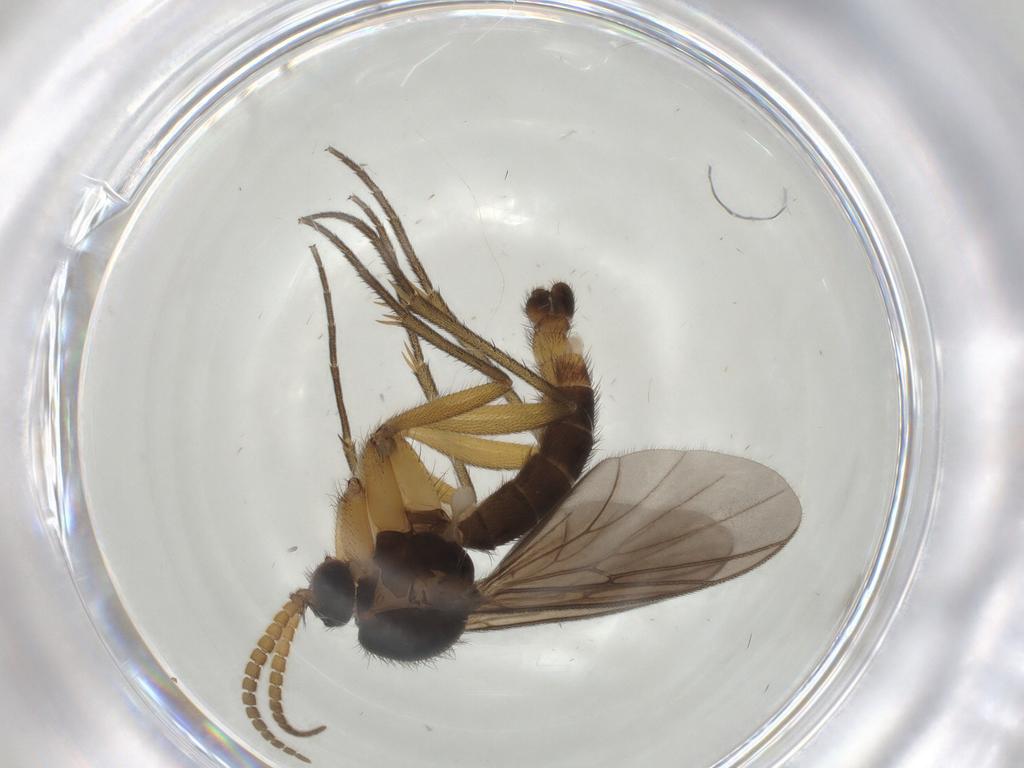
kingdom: Animalia
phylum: Arthropoda
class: Insecta
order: Diptera
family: Mycetophilidae
